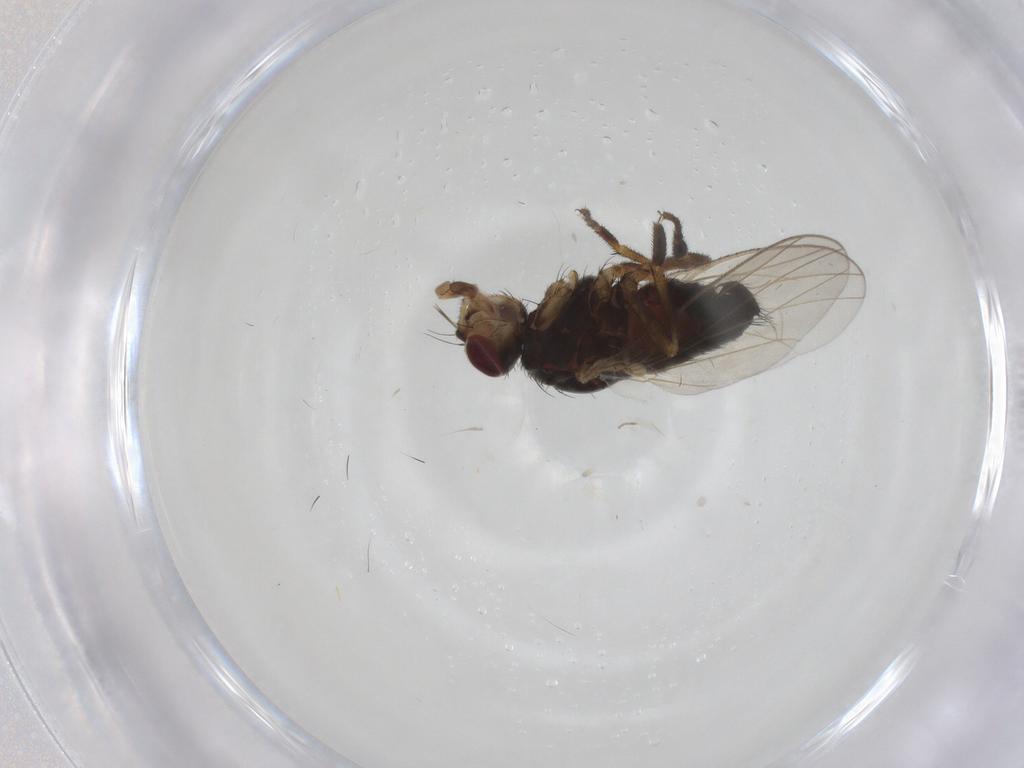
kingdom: Animalia
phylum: Arthropoda
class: Insecta
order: Diptera
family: Heleomyzidae
